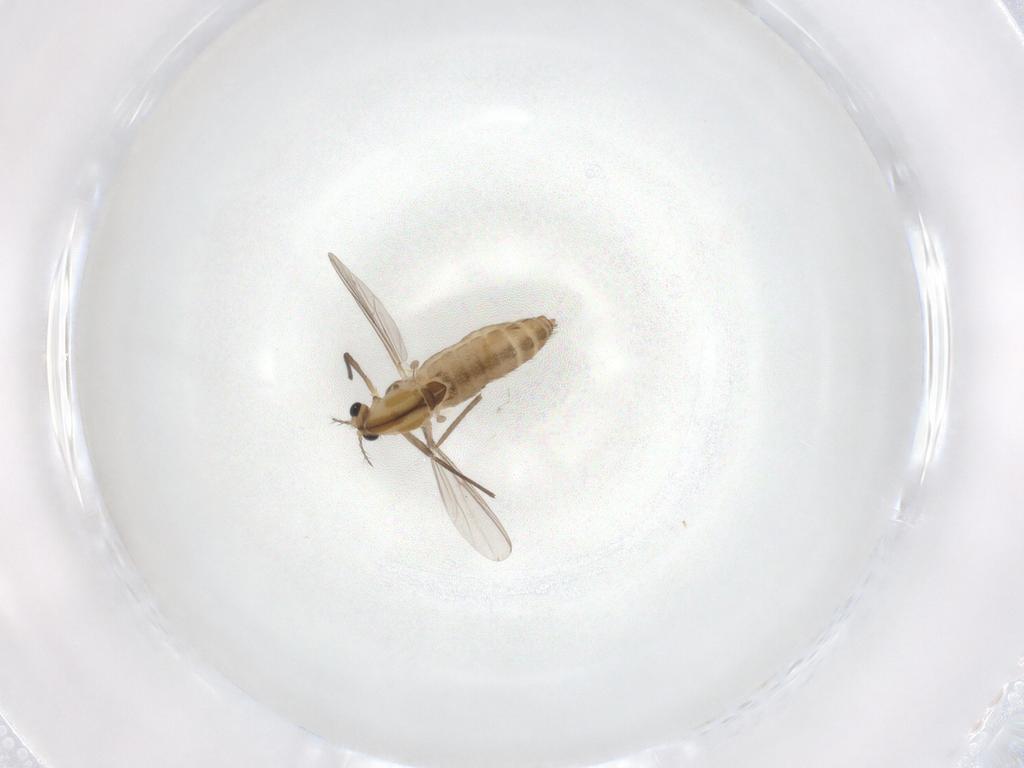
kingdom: Animalia
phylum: Arthropoda
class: Insecta
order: Diptera
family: Chironomidae
